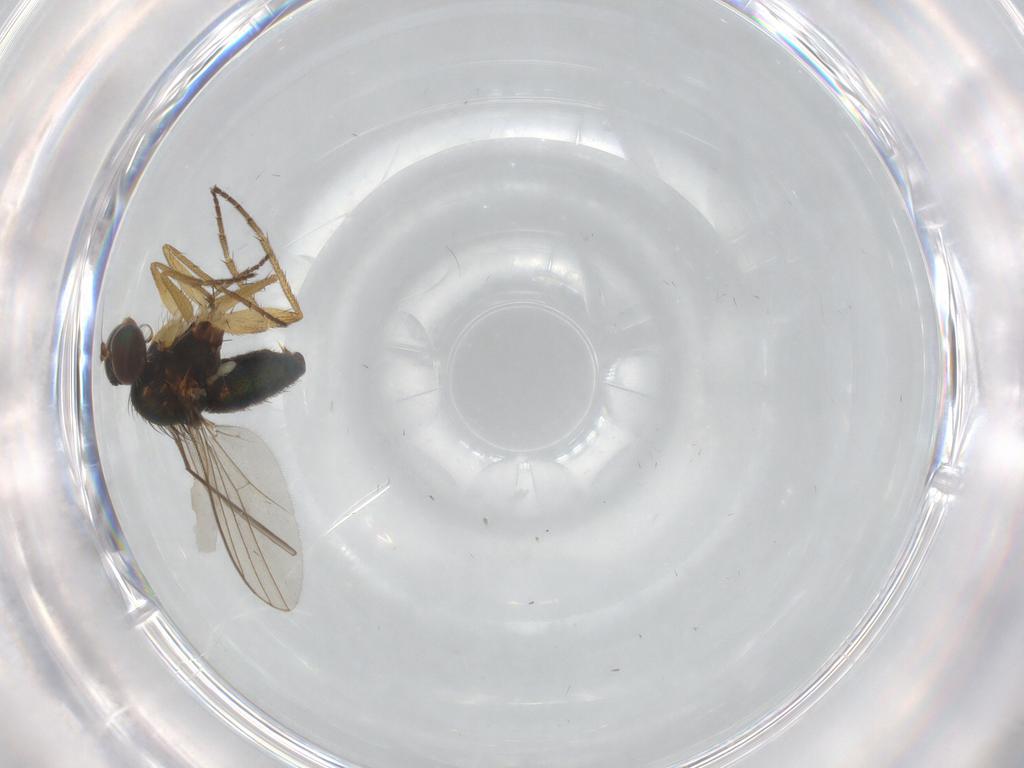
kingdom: Animalia
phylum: Arthropoda
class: Insecta
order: Diptera
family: Dolichopodidae
